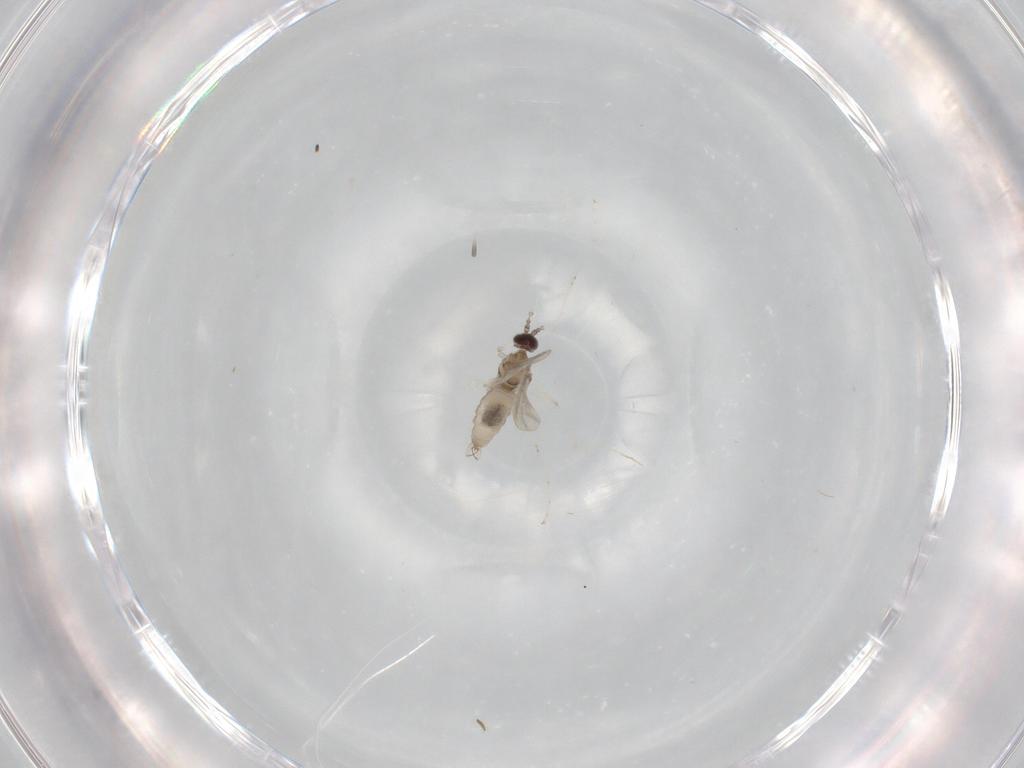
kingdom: Animalia
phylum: Arthropoda
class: Insecta
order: Diptera
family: Cecidomyiidae
